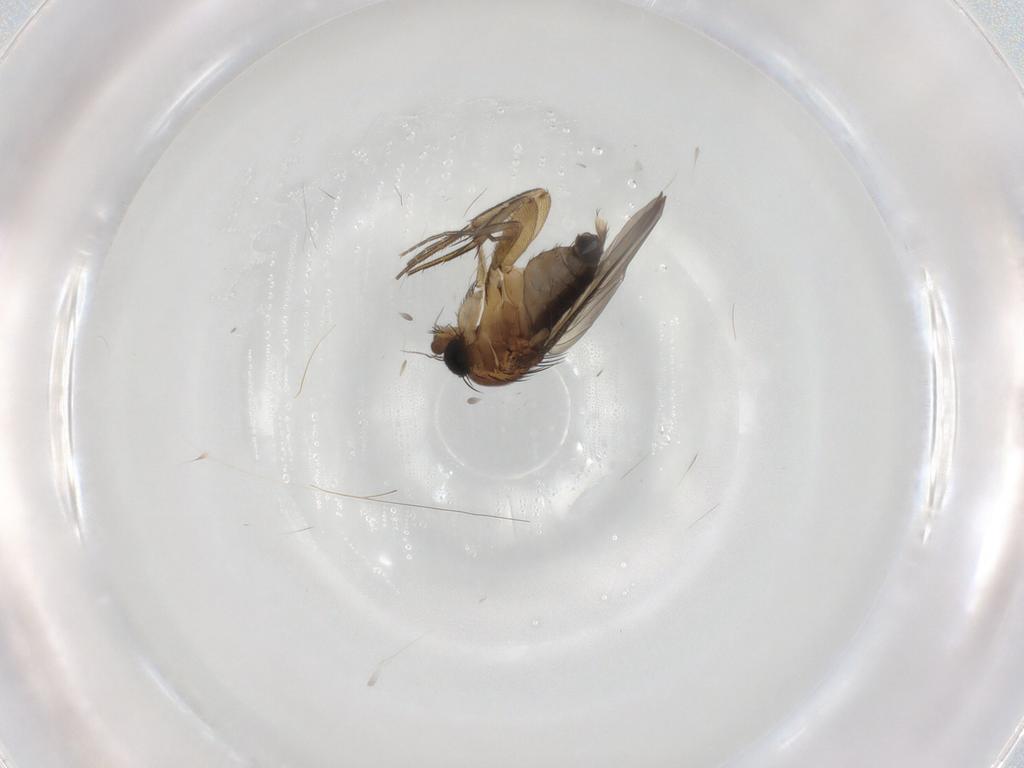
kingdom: Animalia
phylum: Arthropoda
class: Insecta
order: Diptera
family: Phoridae
